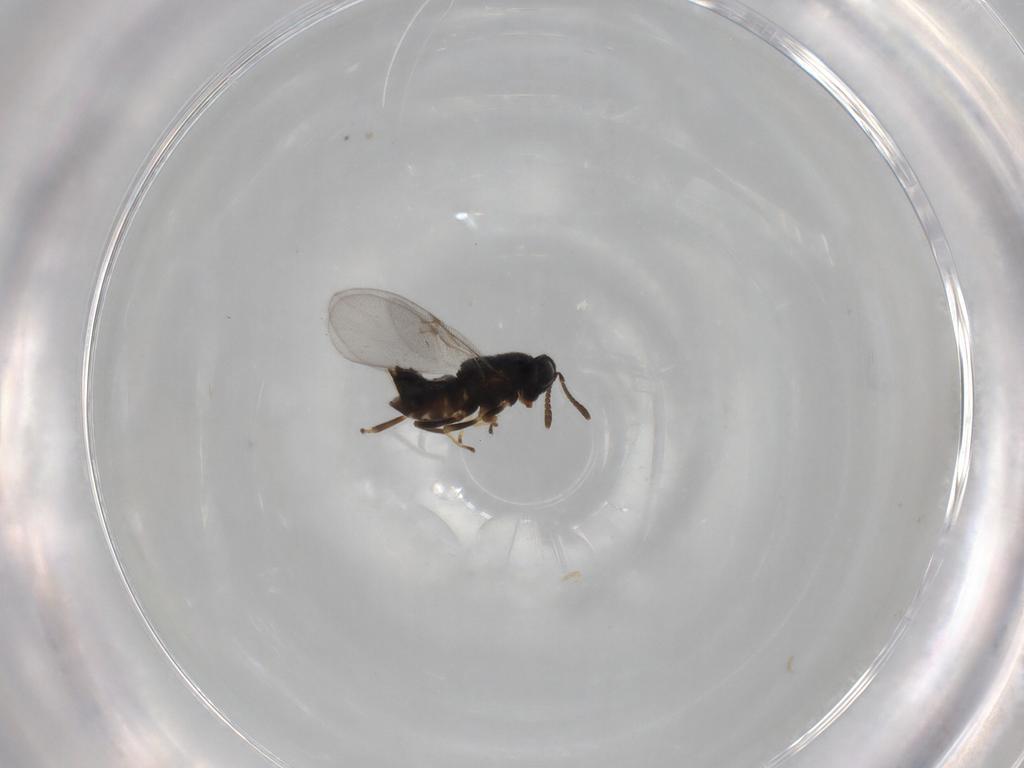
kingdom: Animalia
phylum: Arthropoda
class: Insecta
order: Hymenoptera
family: Encyrtidae
